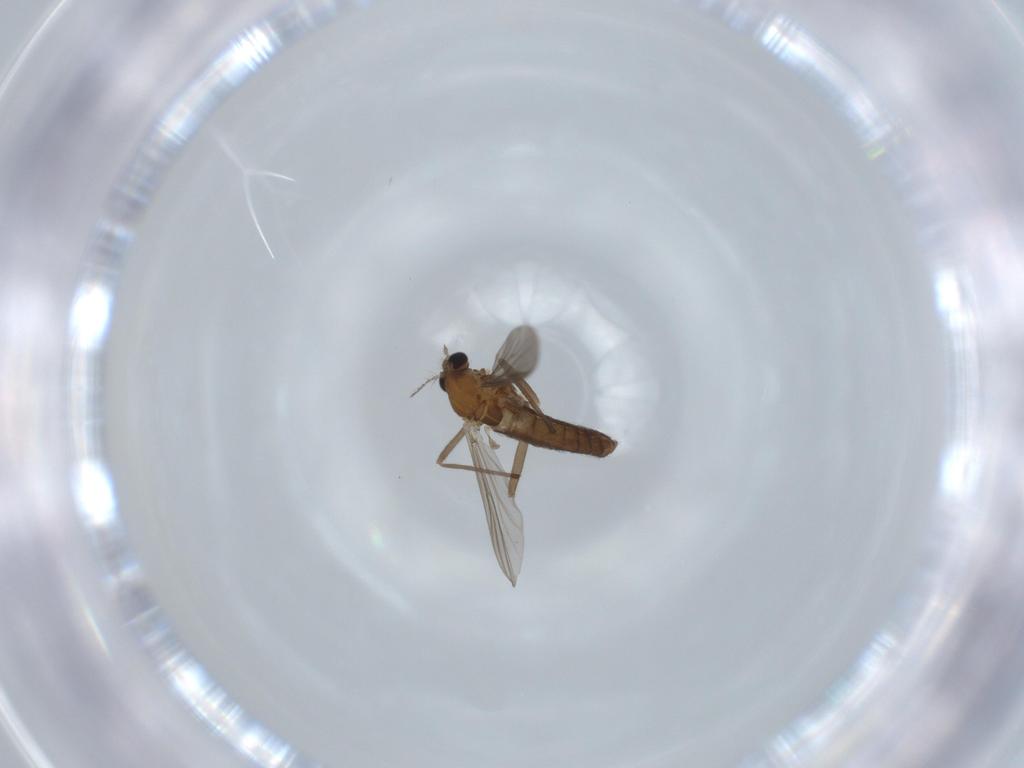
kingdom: Animalia
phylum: Arthropoda
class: Insecta
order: Diptera
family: Chironomidae
